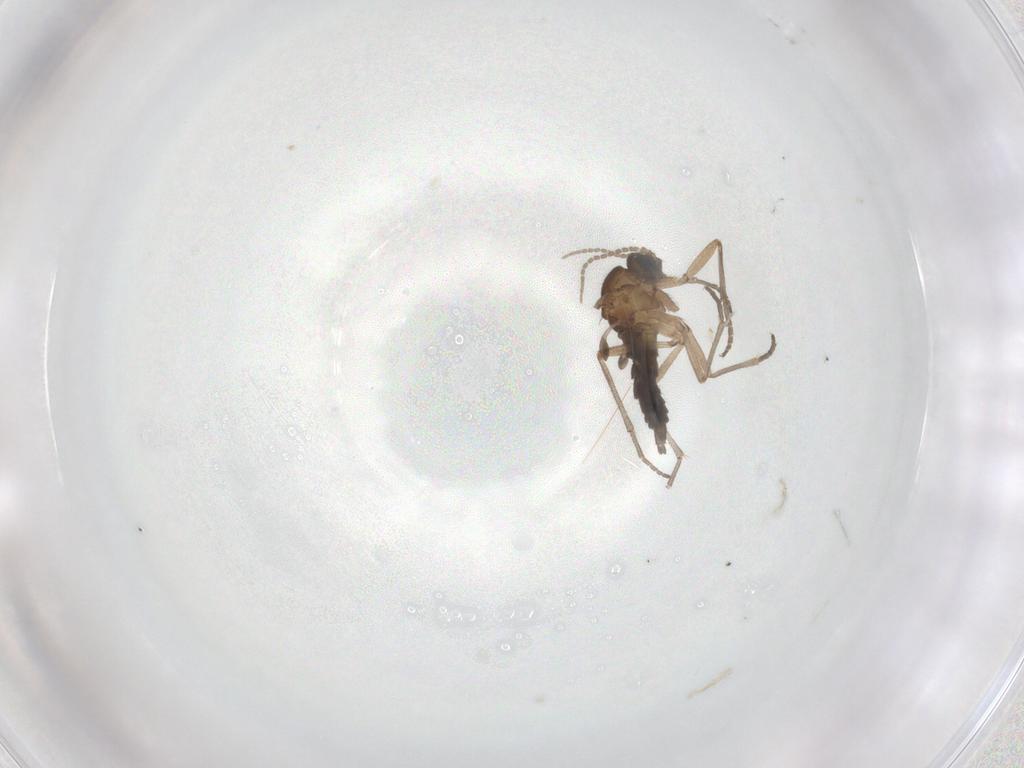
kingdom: Animalia
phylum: Arthropoda
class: Insecta
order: Diptera
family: Sciaridae
